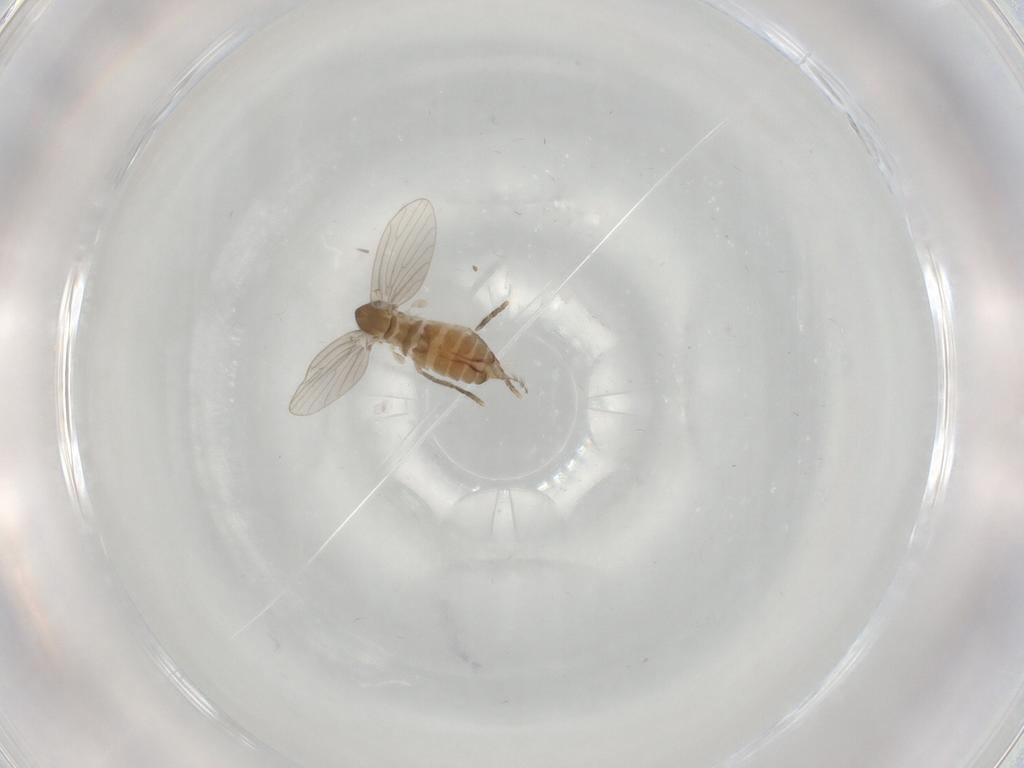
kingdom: Animalia
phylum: Arthropoda
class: Insecta
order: Diptera
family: Psychodidae
